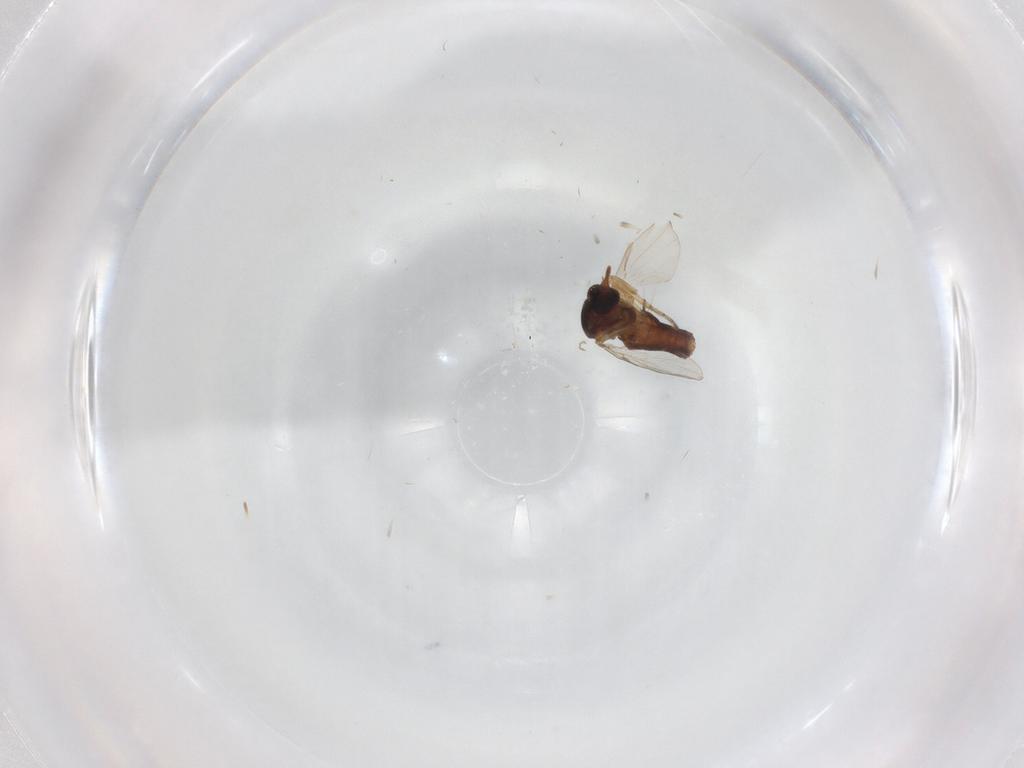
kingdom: Animalia
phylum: Arthropoda
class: Insecta
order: Diptera
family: Ceratopogonidae
